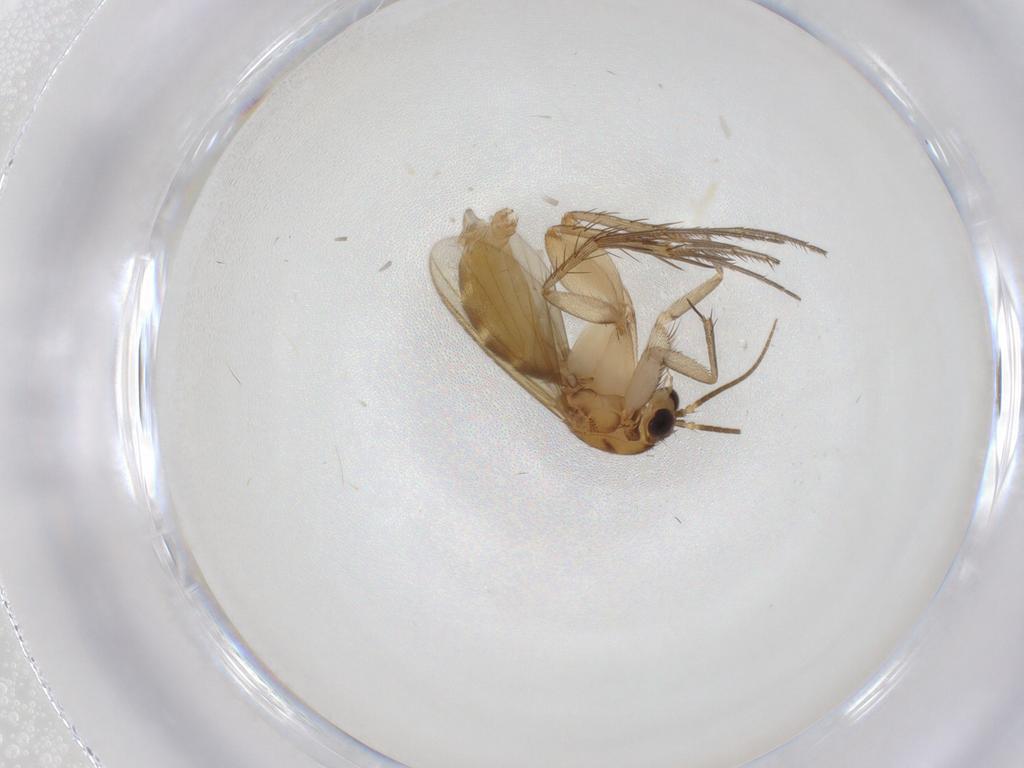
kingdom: Animalia
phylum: Arthropoda
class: Insecta
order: Diptera
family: Mycetophilidae
